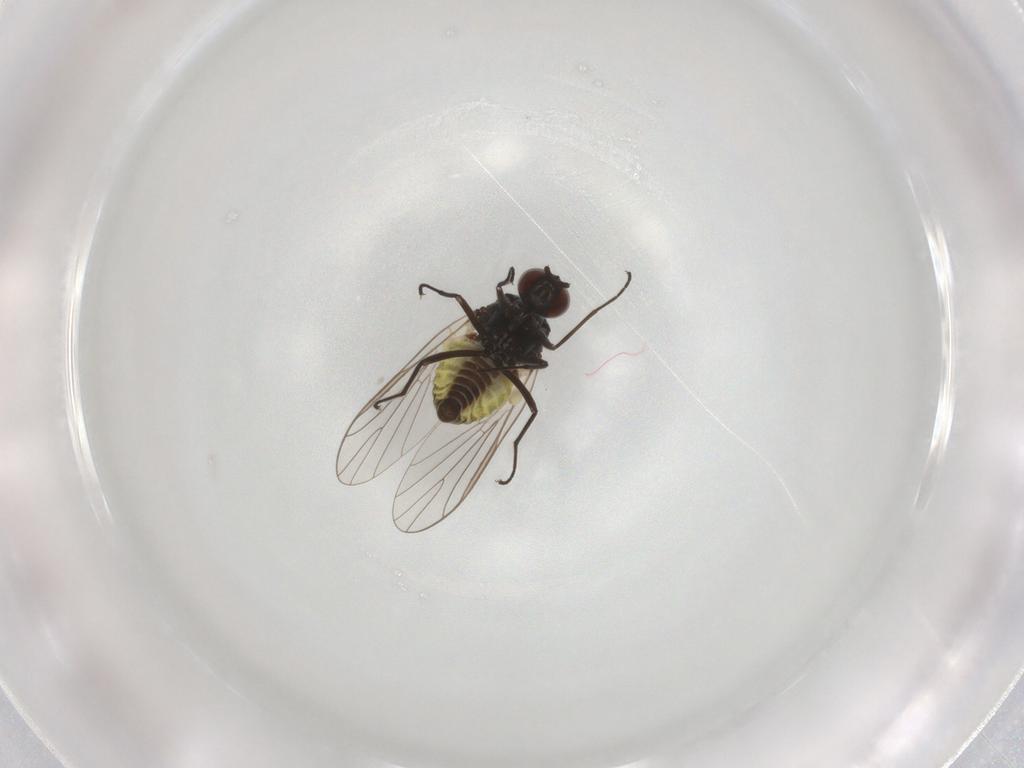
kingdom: Animalia
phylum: Arthropoda
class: Insecta
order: Diptera
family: Bombyliidae
